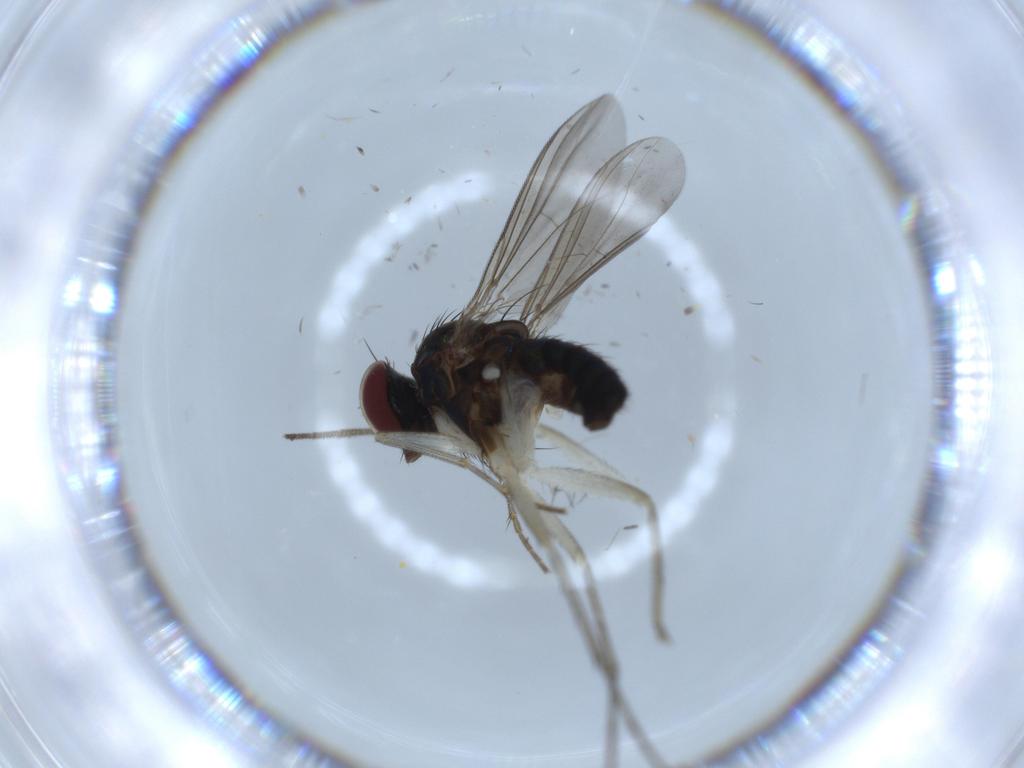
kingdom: Animalia
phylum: Arthropoda
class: Insecta
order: Diptera
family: Dolichopodidae
